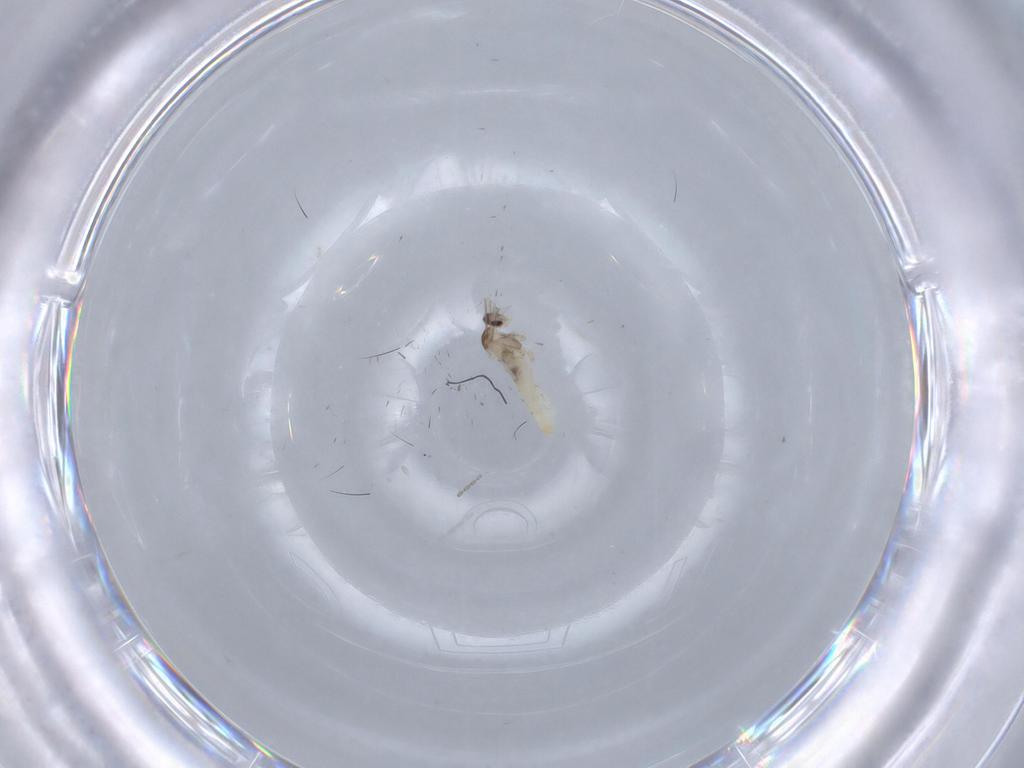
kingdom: Animalia
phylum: Arthropoda
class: Insecta
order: Diptera
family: Cecidomyiidae
